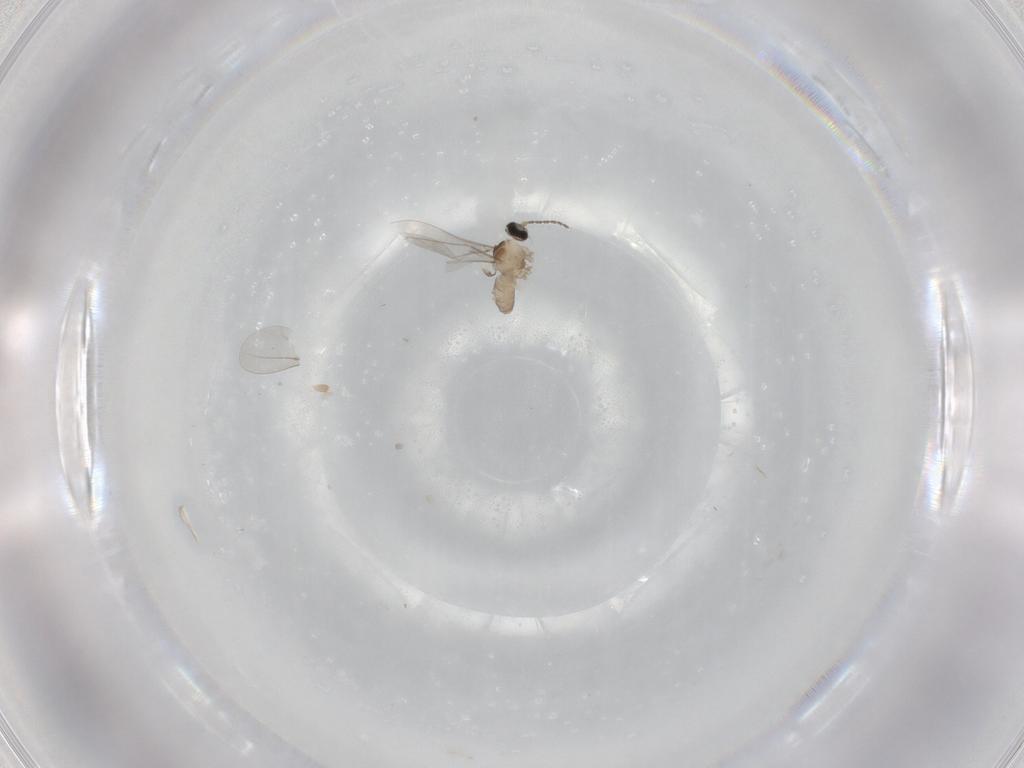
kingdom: Animalia
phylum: Arthropoda
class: Insecta
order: Diptera
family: Cecidomyiidae
